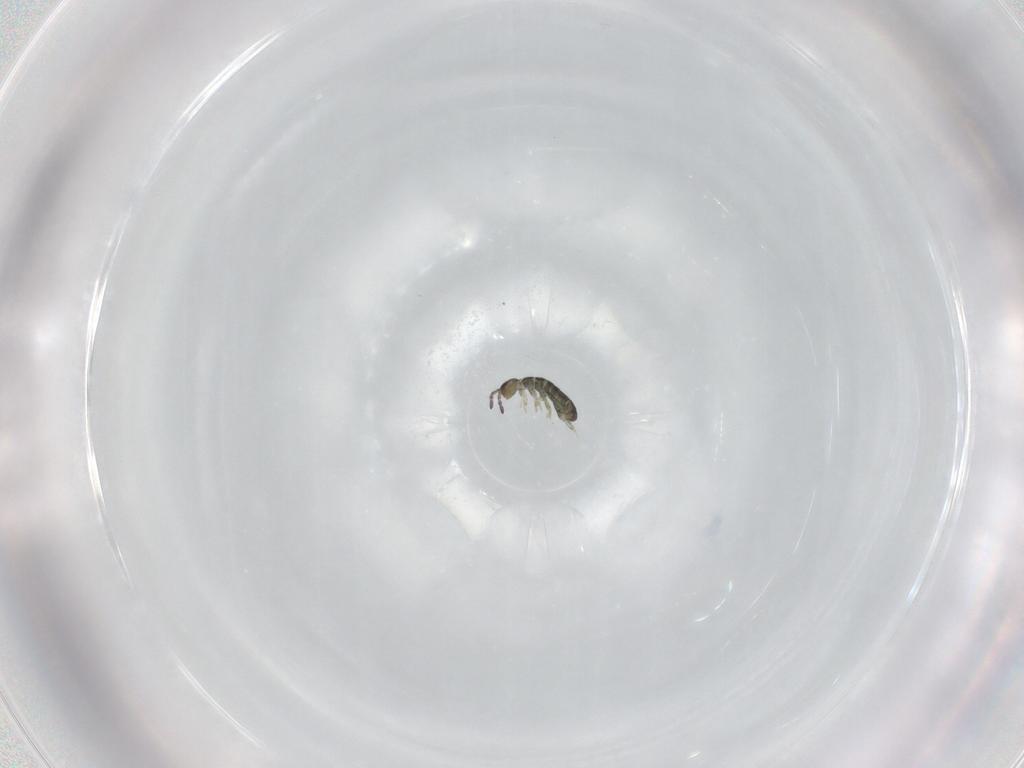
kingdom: Animalia
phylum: Arthropoda
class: Collembola
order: Entomobryomorpha
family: Isotomidae
